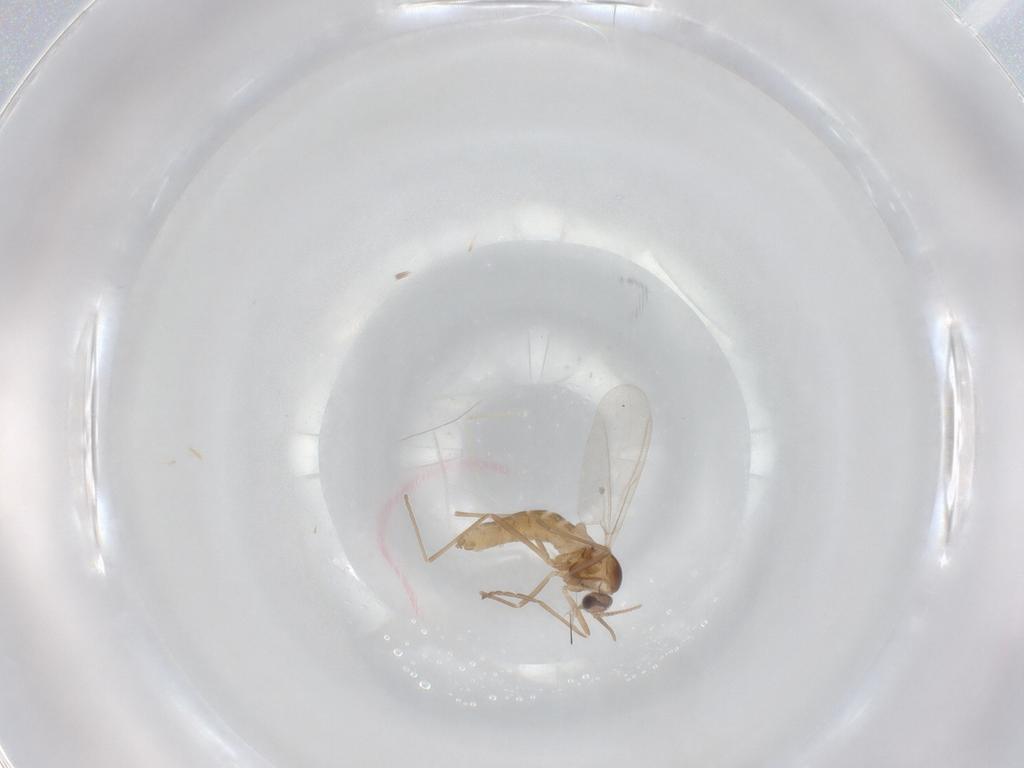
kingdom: Animalia
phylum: Arthropoda
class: Insecta
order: Diptera
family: Cecidomyiidae
